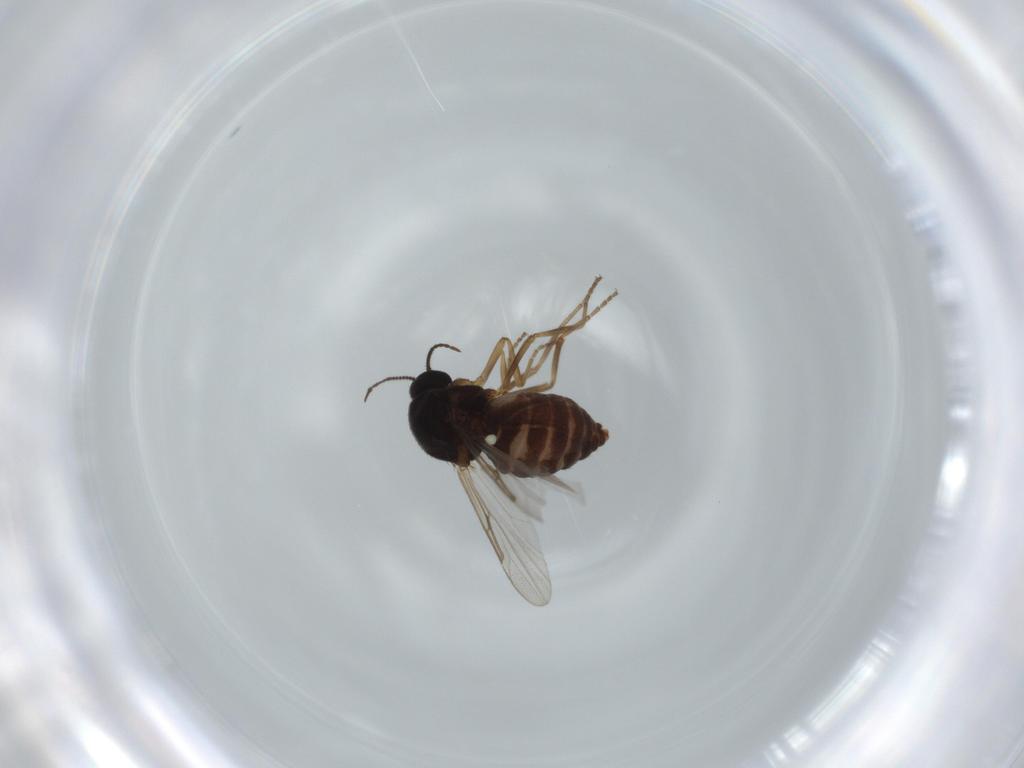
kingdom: Animalia
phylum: Arthropoda
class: Insecta
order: Diptera
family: Simuliidae
